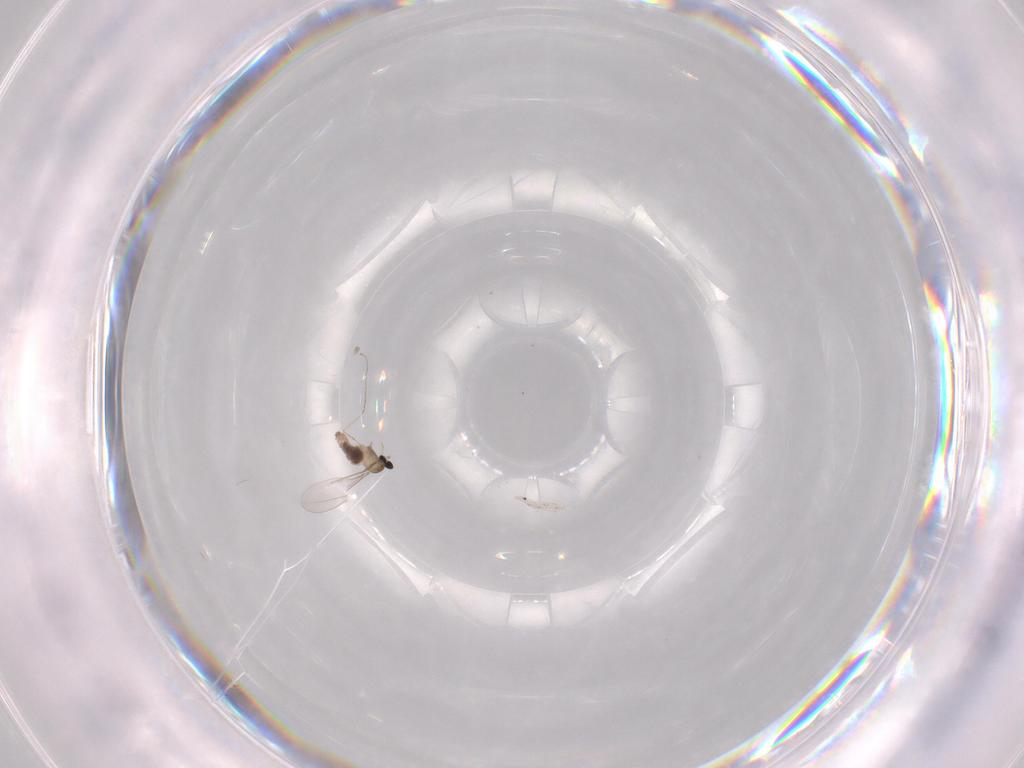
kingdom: Animalia
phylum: Arthropoda
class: Insecta
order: Diptera
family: Cecidomyiidae
